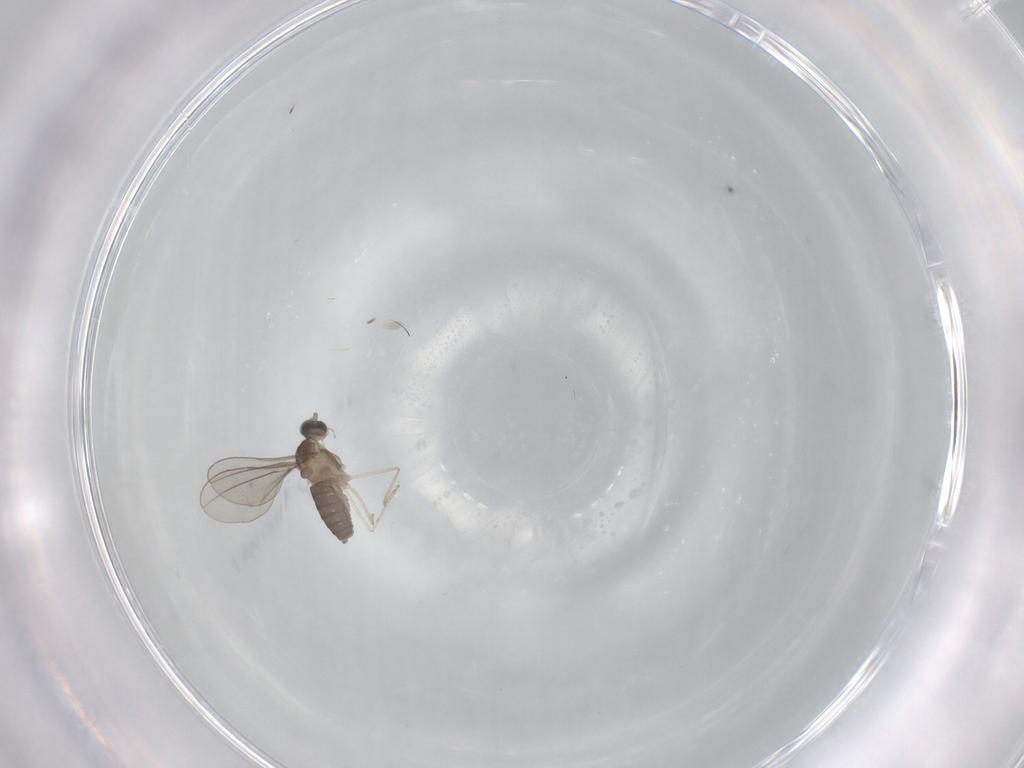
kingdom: Animalia
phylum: Arthropoda
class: Insecta
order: Diptera
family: Cecidomyiidae
